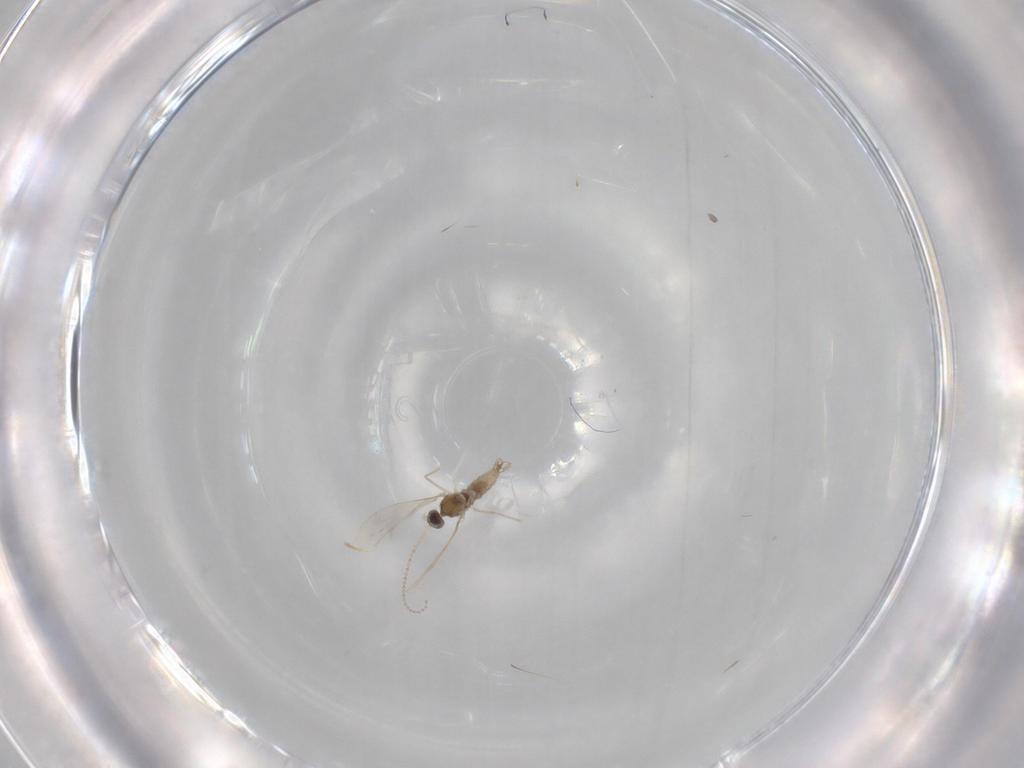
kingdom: Animalia
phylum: Arthropoda
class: Insecta
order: Diptera
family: Cecidomyiidae
